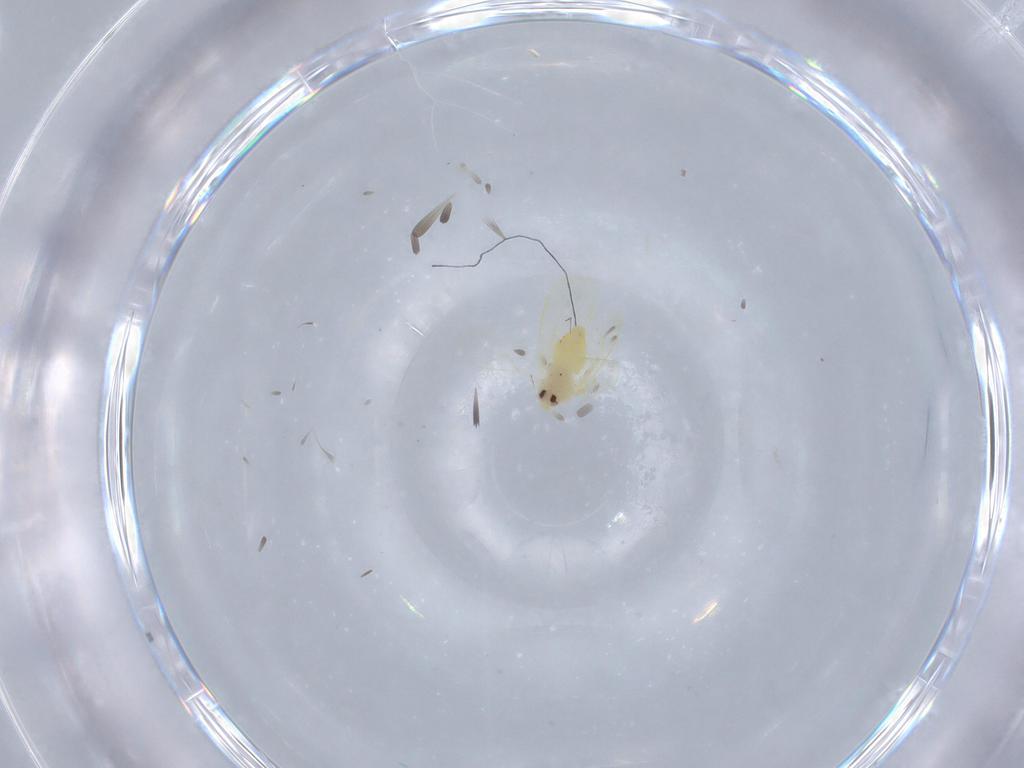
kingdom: Animalia
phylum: Arthropoda
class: Insecta
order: Hemiptera
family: Aleyrodidae
